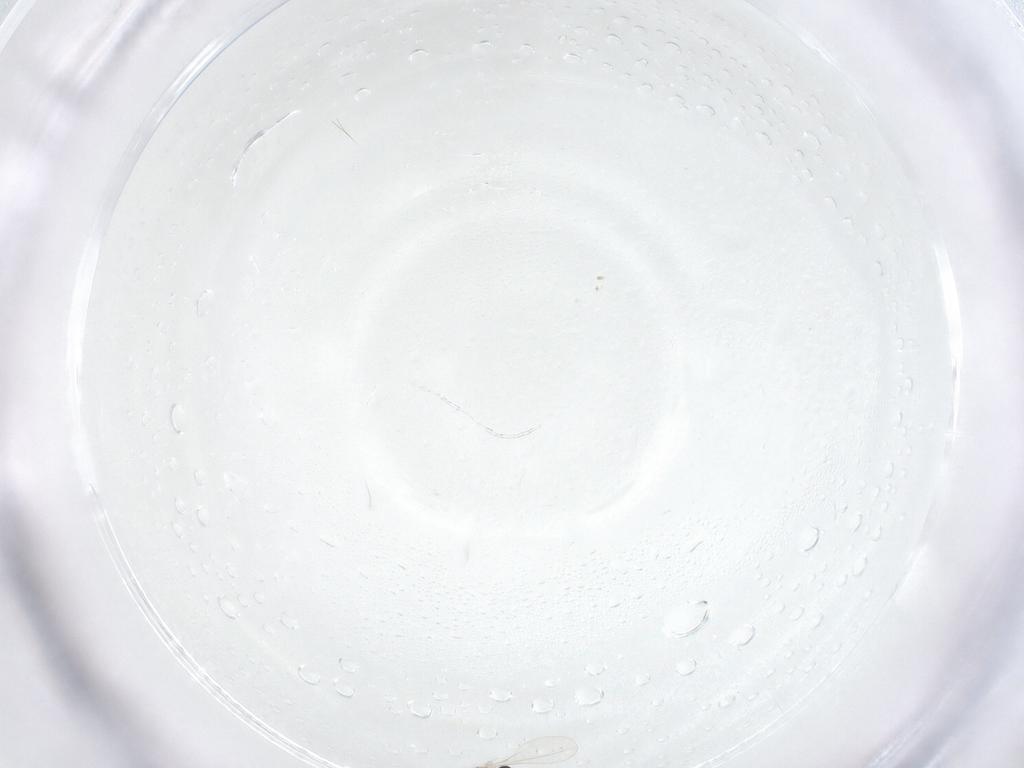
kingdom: Animalia
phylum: Arthropoda
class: Insecta
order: Diptera
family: Cecidomyiidae
